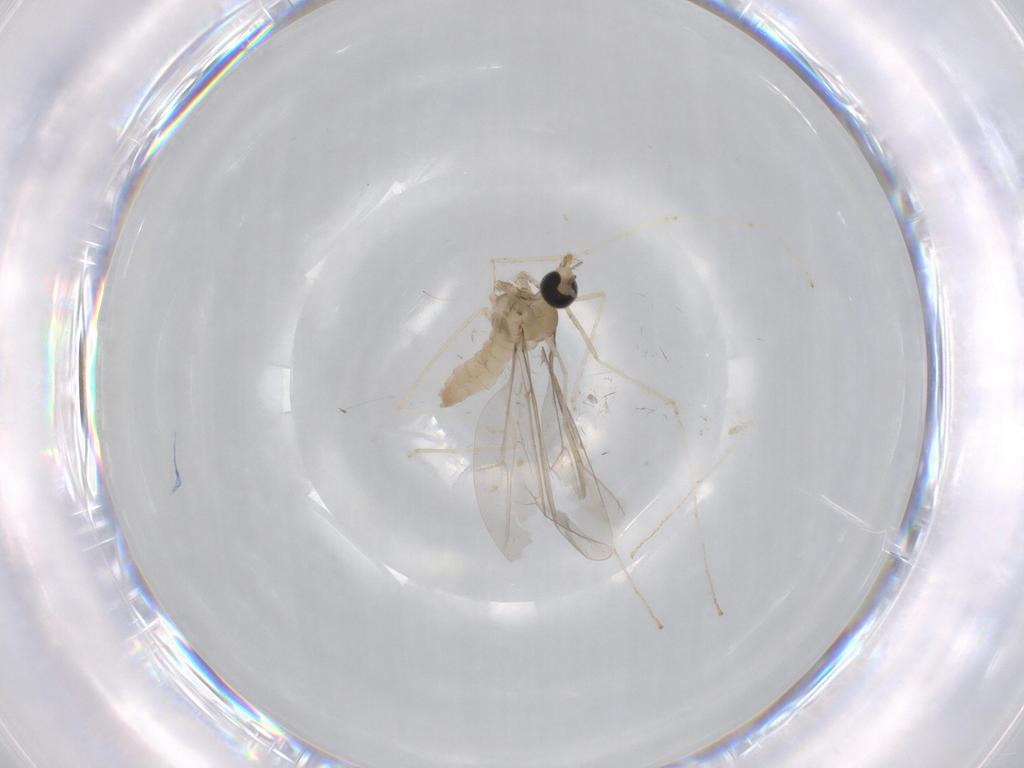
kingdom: Animalia
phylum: Arthropoda
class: Insecta
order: Diptera
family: Cecidomyiidae
